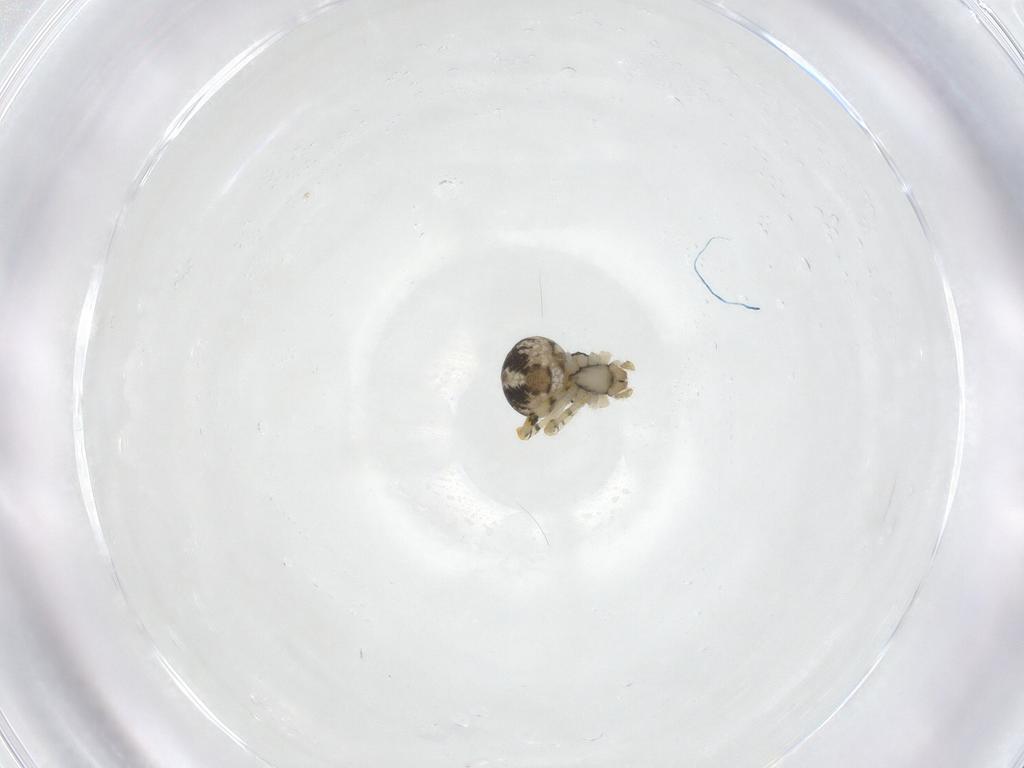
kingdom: Animalia
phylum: Arthropoda
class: Arachnida
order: Araneae
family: Theridiidae
